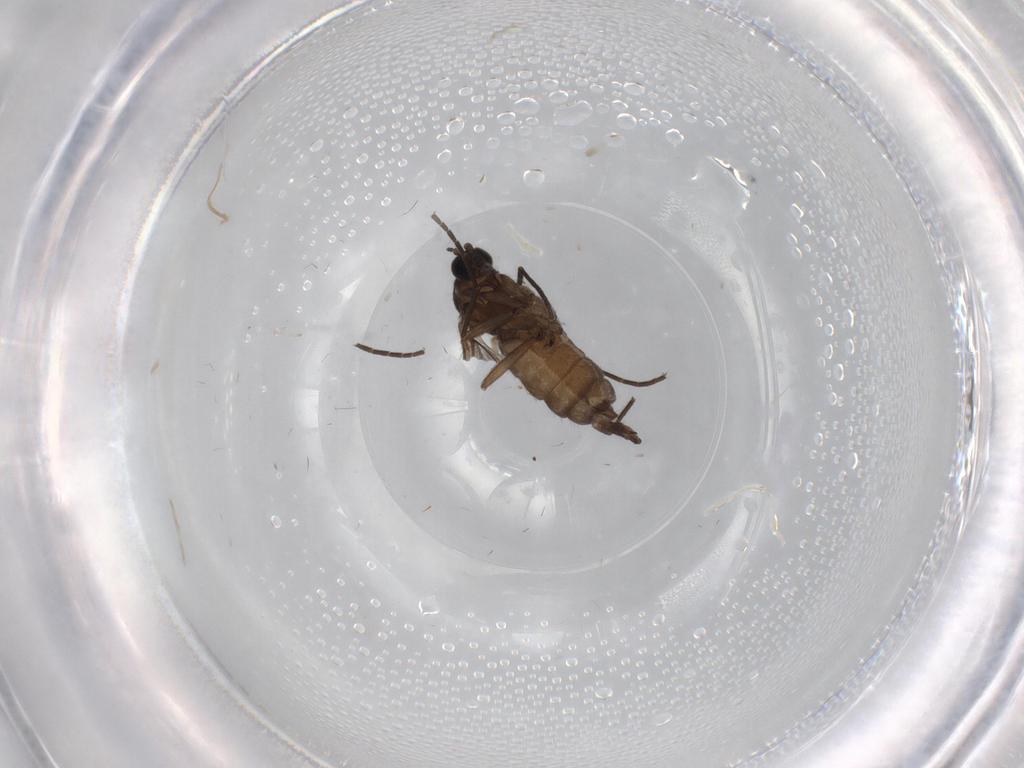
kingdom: Animalia
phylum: Arthropoda
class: Insecta
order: Diptera
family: Sciaridae
